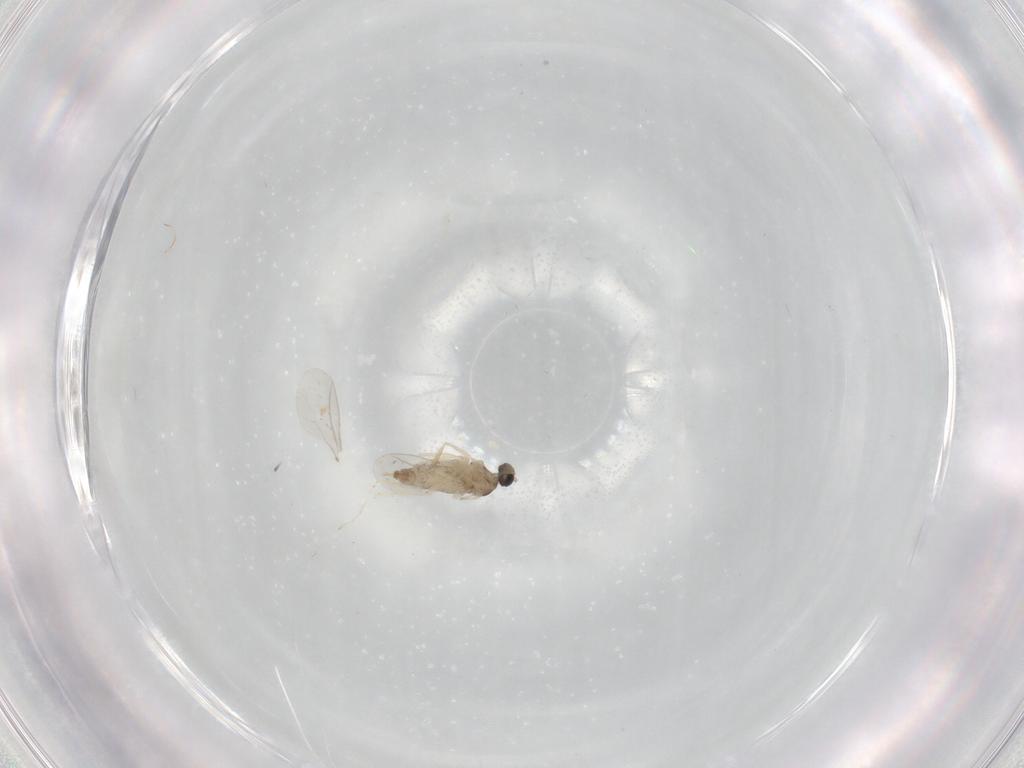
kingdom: Animalia
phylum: Arthropoda
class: Insecta
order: Diptera
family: Cecidomyiidae
